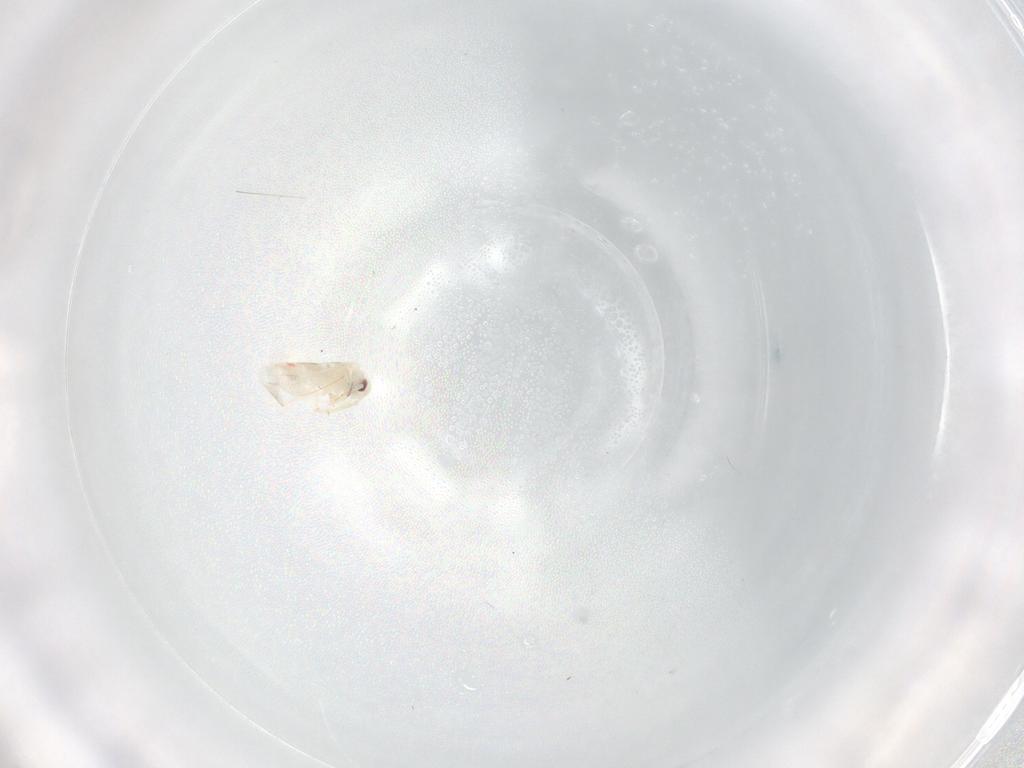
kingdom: Animalia
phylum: Arthropoda
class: Insecta
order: Hemiptera
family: Aleyrodidae
